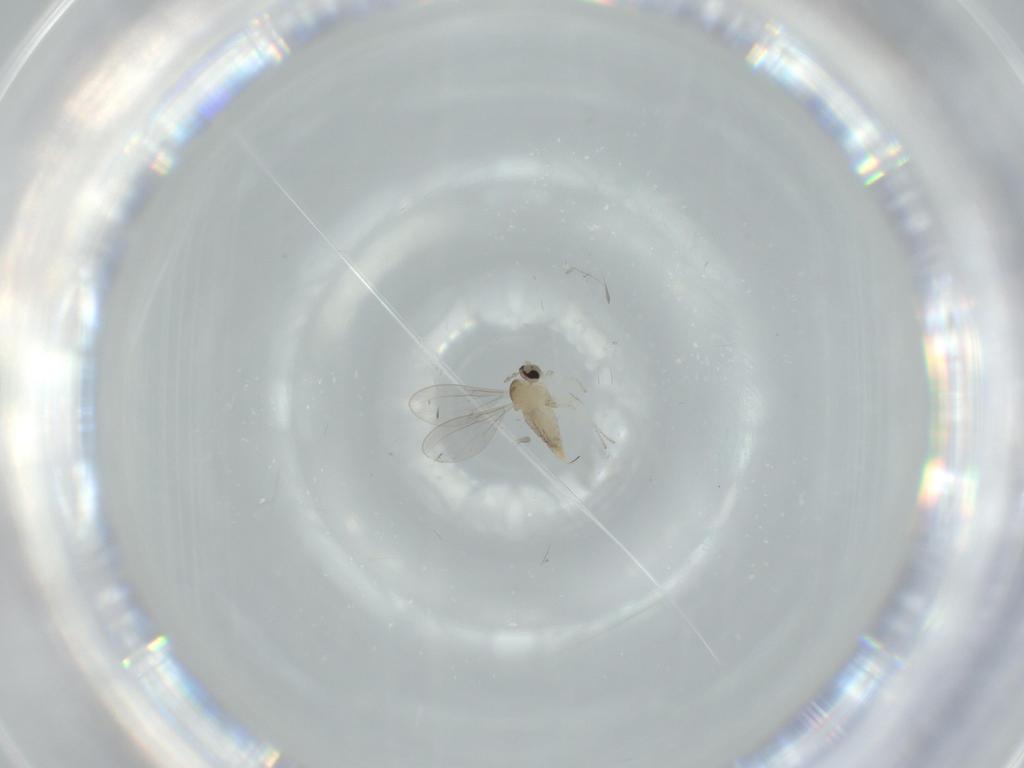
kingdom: Animalia
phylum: Arthropoda
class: Insecta
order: Diptera
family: Cecidomyiidae
